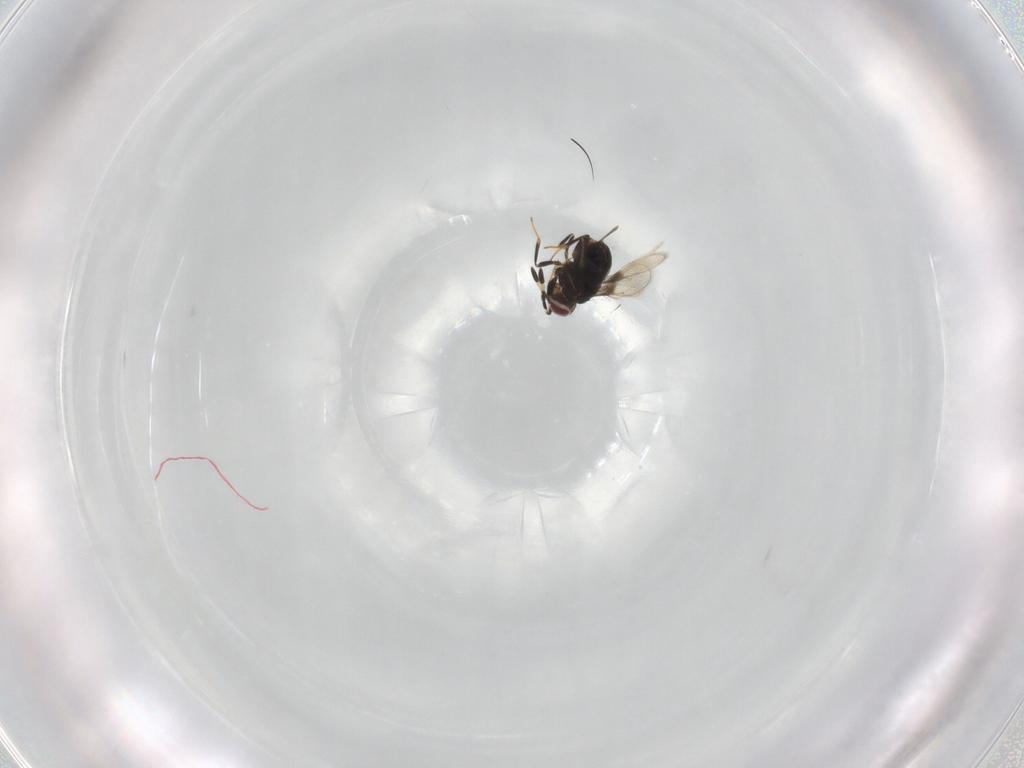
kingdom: Animalia
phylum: Arthropoda
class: Insecta
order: Hymenoptera
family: Azotidae
